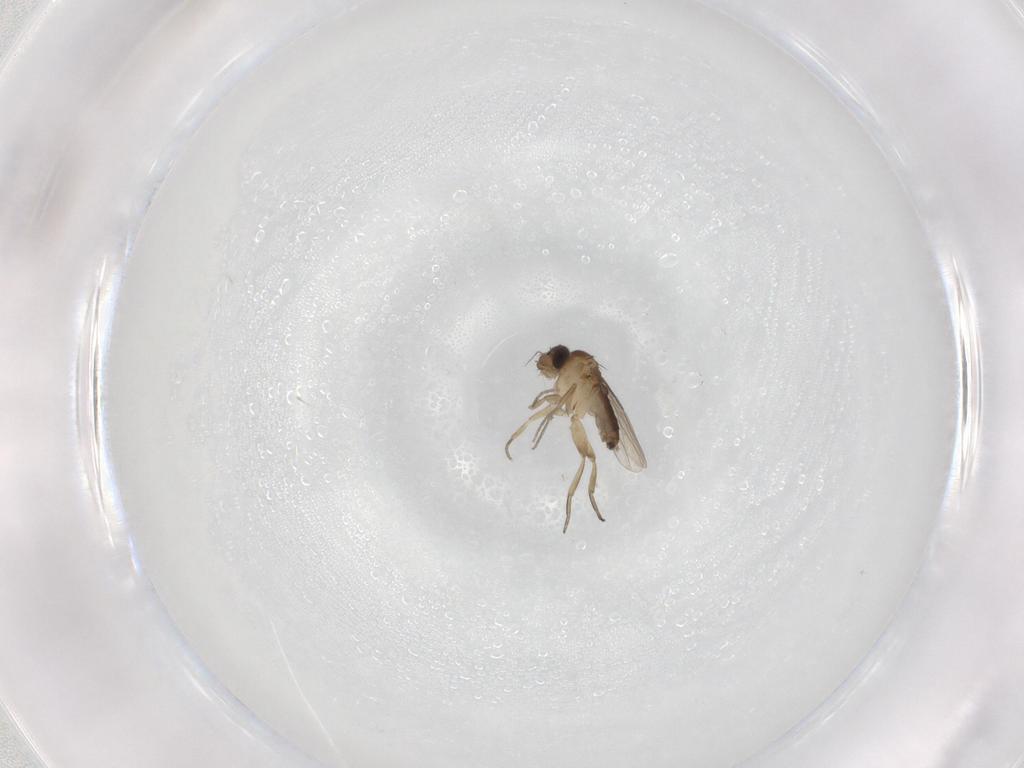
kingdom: Animalia
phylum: Arthropoda
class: Insecta
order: Diptera
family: Phoridae
